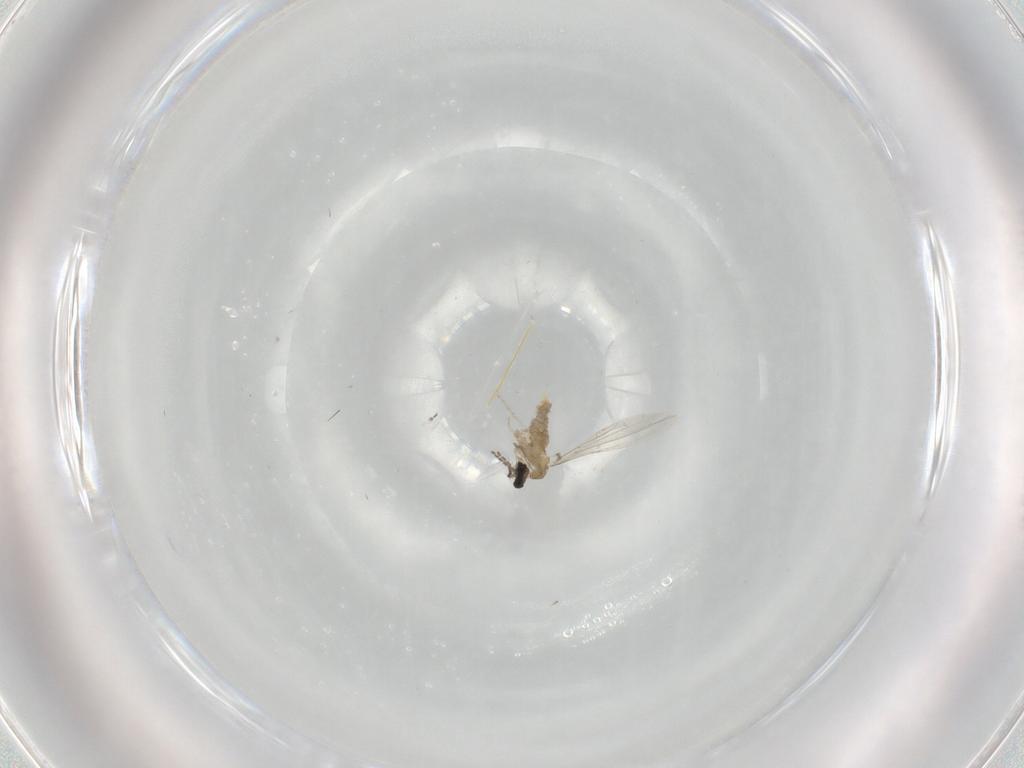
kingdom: Animalia
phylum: Arthropoda
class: Insecta
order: Diptera
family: Cecidomyiidae
